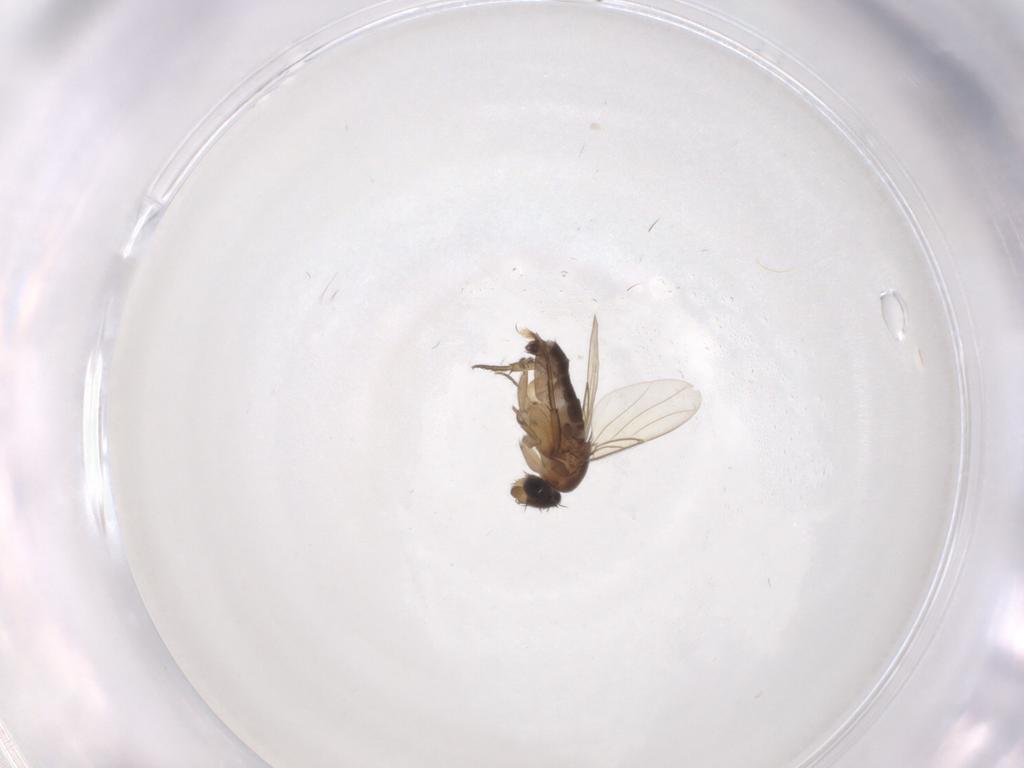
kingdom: Animalia
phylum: Arthropoda
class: Insecta
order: Diptera
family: Phoridae
